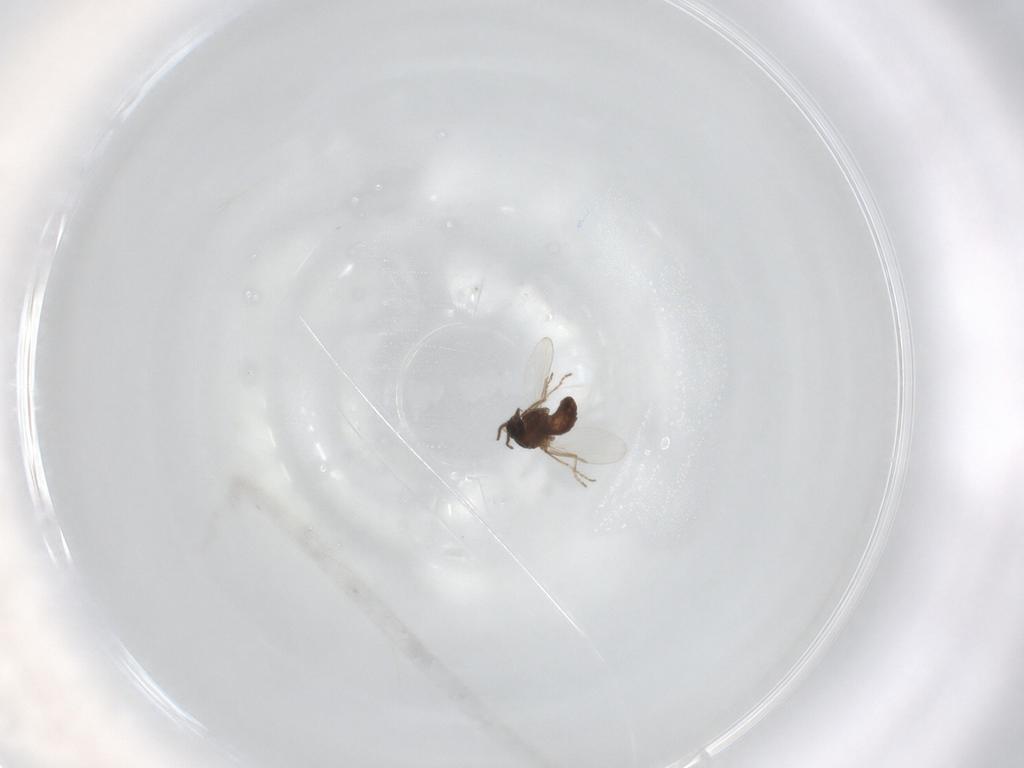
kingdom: Animalia
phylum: Arthropoda
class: Insecta
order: Diptera
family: Ceratopogonidae
